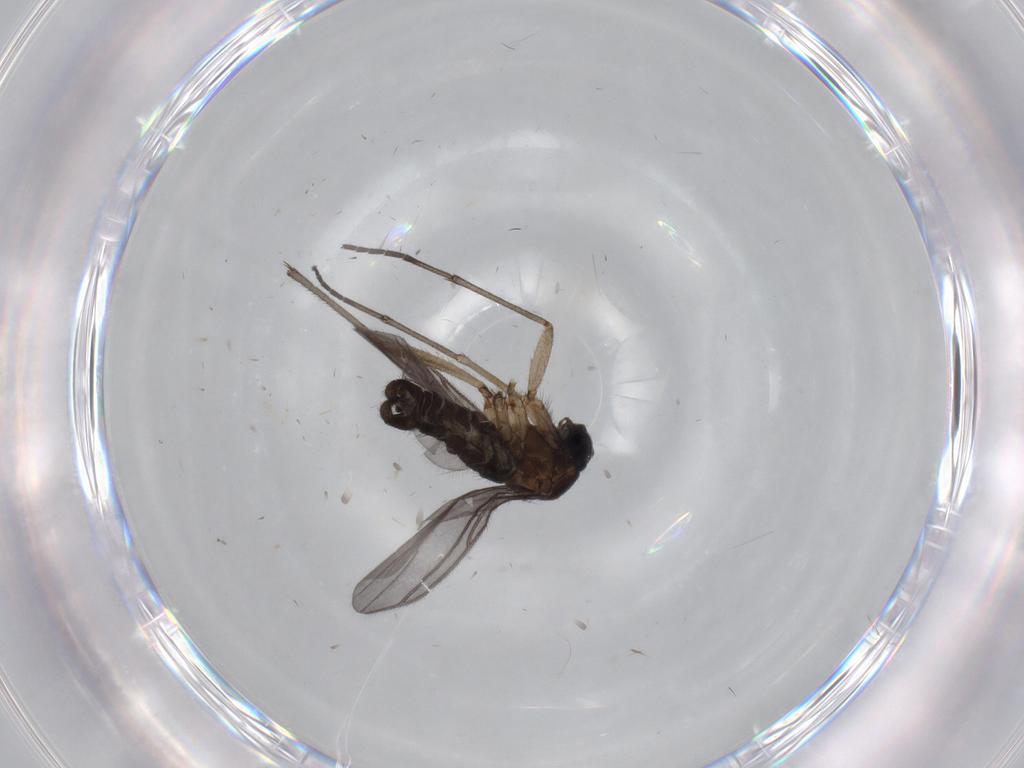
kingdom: Animalia
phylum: Arthropoda
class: Insecta
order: Diptera
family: Sciaridae
